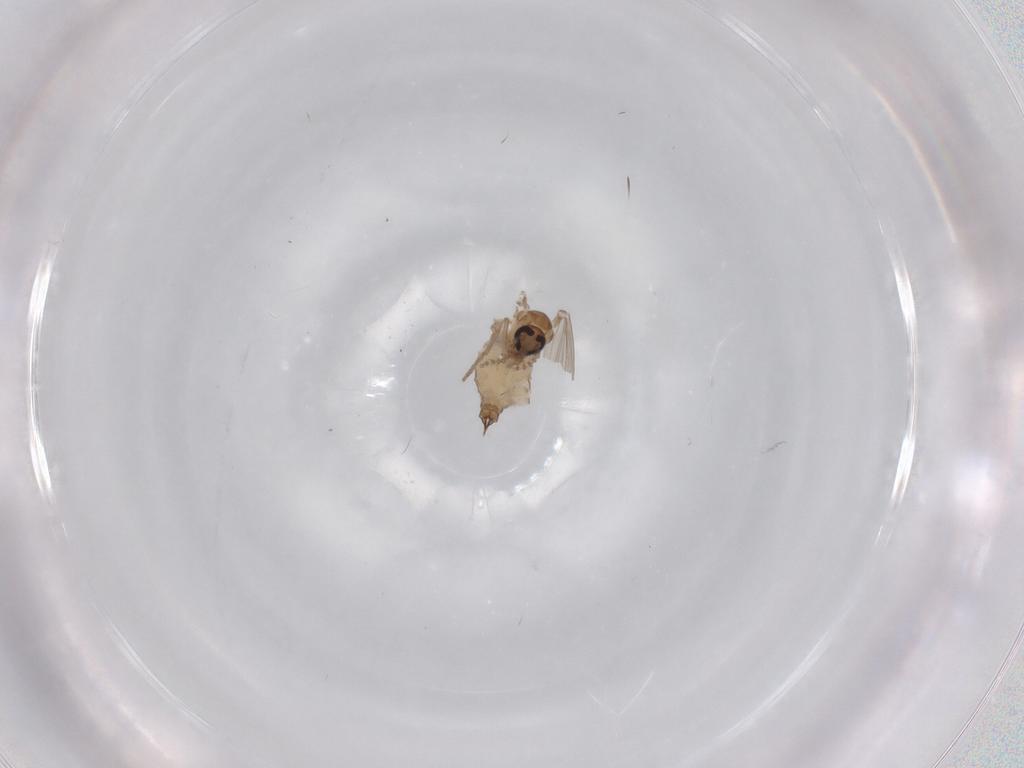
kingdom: Animalia
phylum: Arthropoda
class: Insecta
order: Diptera
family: Psychodidae
